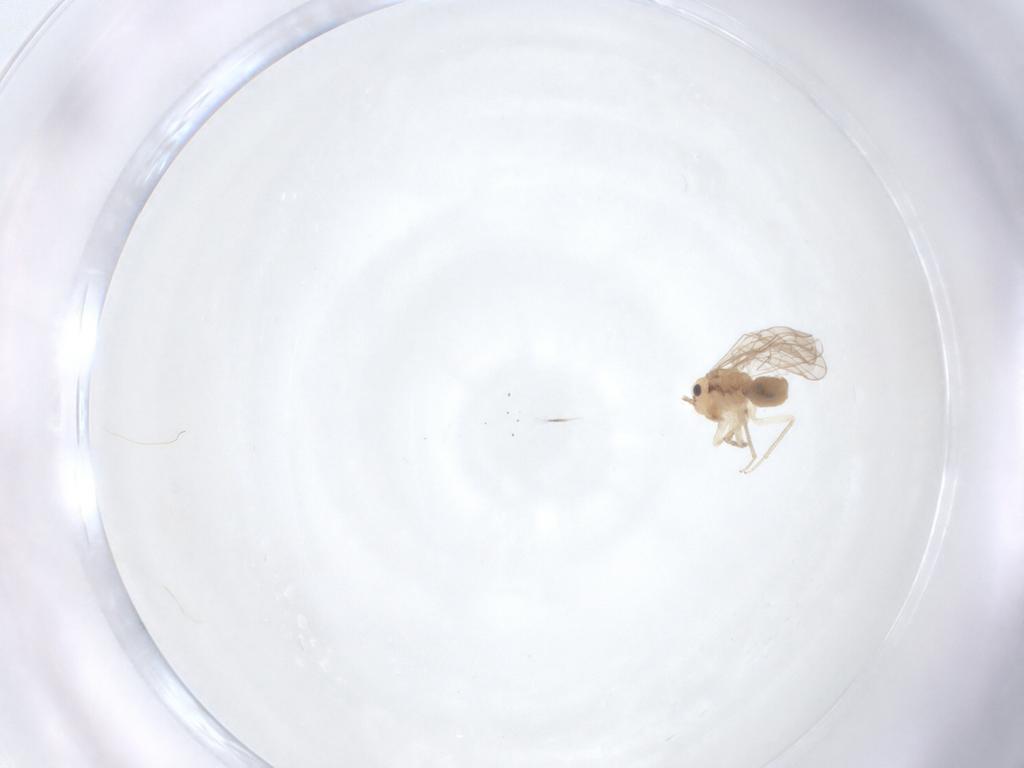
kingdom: Animalia
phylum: Arthropoda
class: Insecta
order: Psocodea
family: Ectopsocidae
